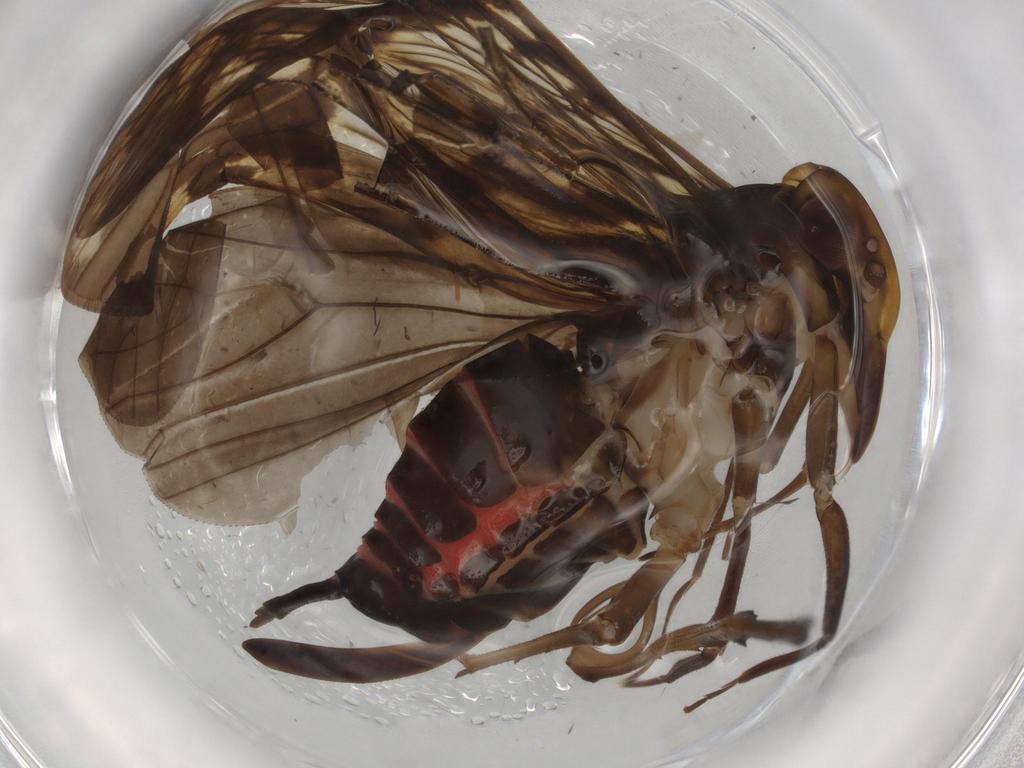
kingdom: Animalia
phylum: Arthropoda
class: Insecta
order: Hemiptera
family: Cixiidae
